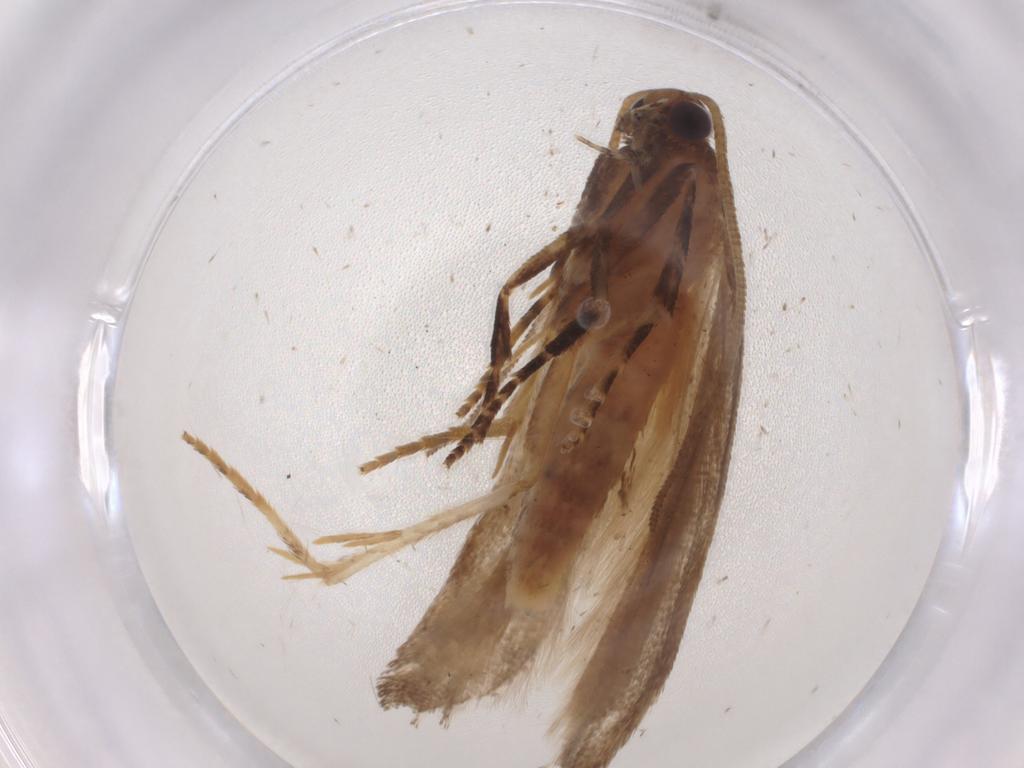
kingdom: Animalia
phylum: Arthropoda
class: Insecta
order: Lepidoptera
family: Gelechiidae
